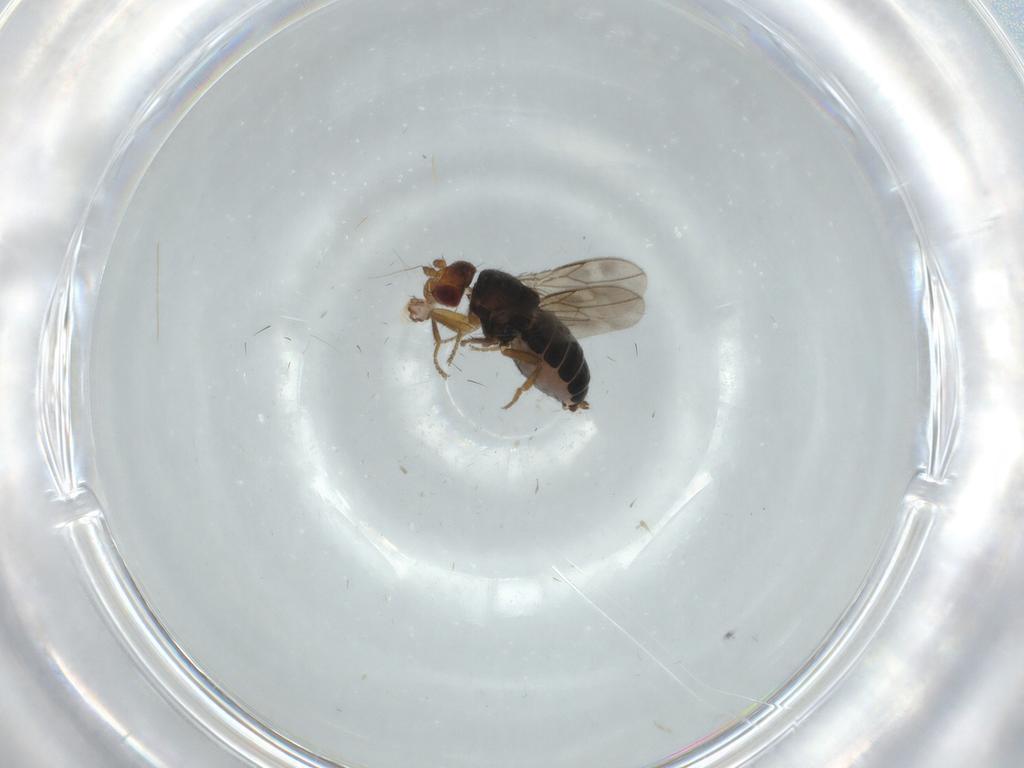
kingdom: Animalia
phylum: Arthropoda
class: Insecta
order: Diptera
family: Sphaeroceridae
